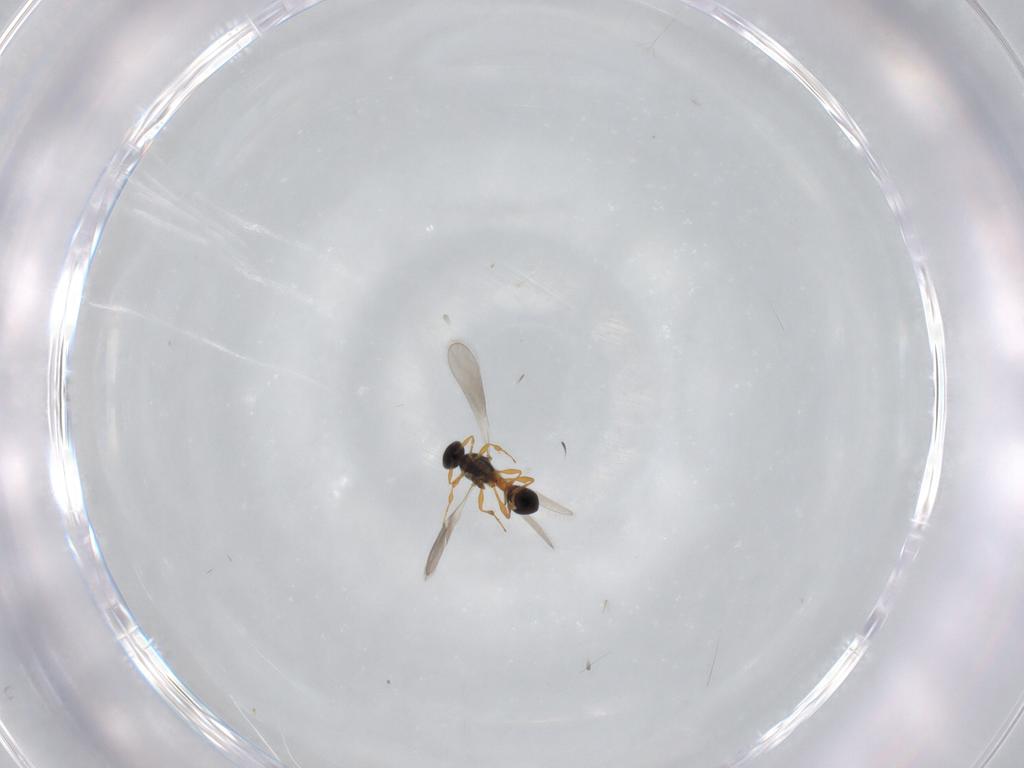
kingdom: Animalia
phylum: Arthropoda
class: Insecta
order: Hymenoptera
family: Platygastridae
